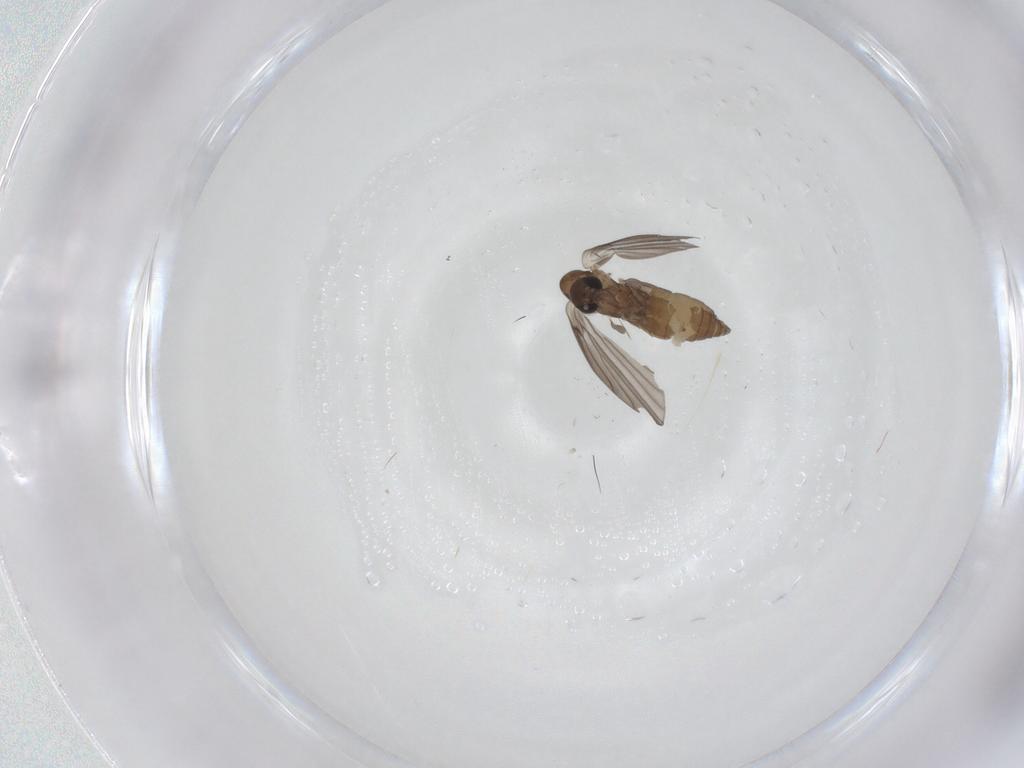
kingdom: Animalia
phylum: Arthropoda
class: Insecta
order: Diptera
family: Psychodidae
